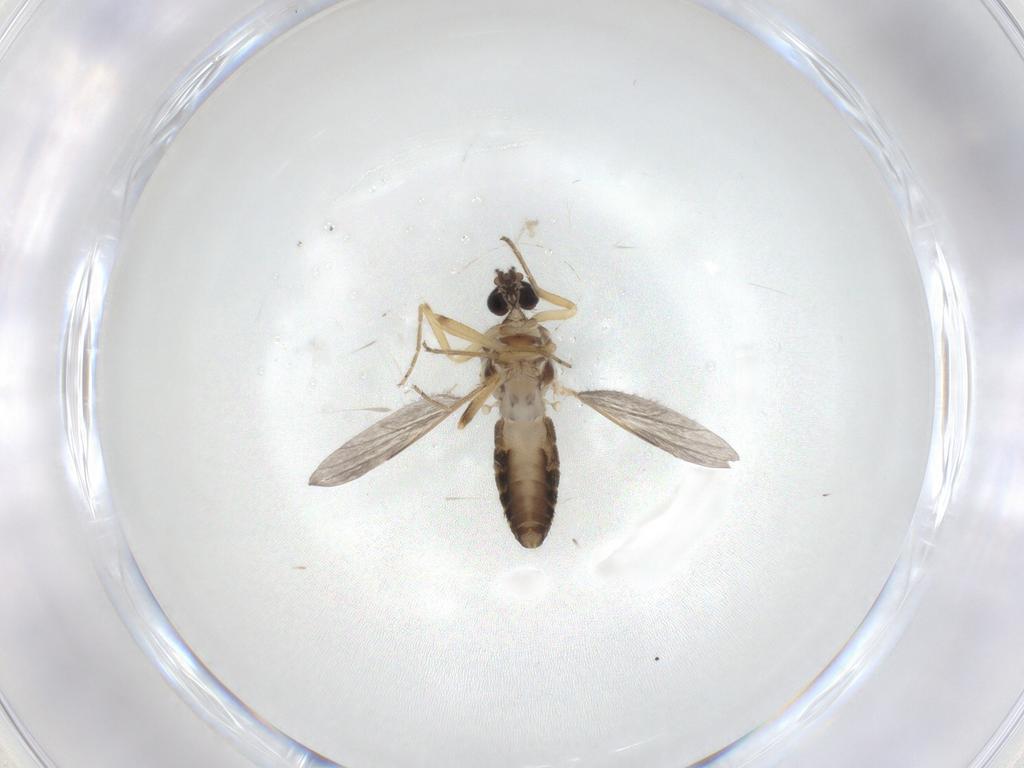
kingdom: Animalia
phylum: Arthropoda
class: Insecta
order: Diptera
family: Ceratopogonidae
